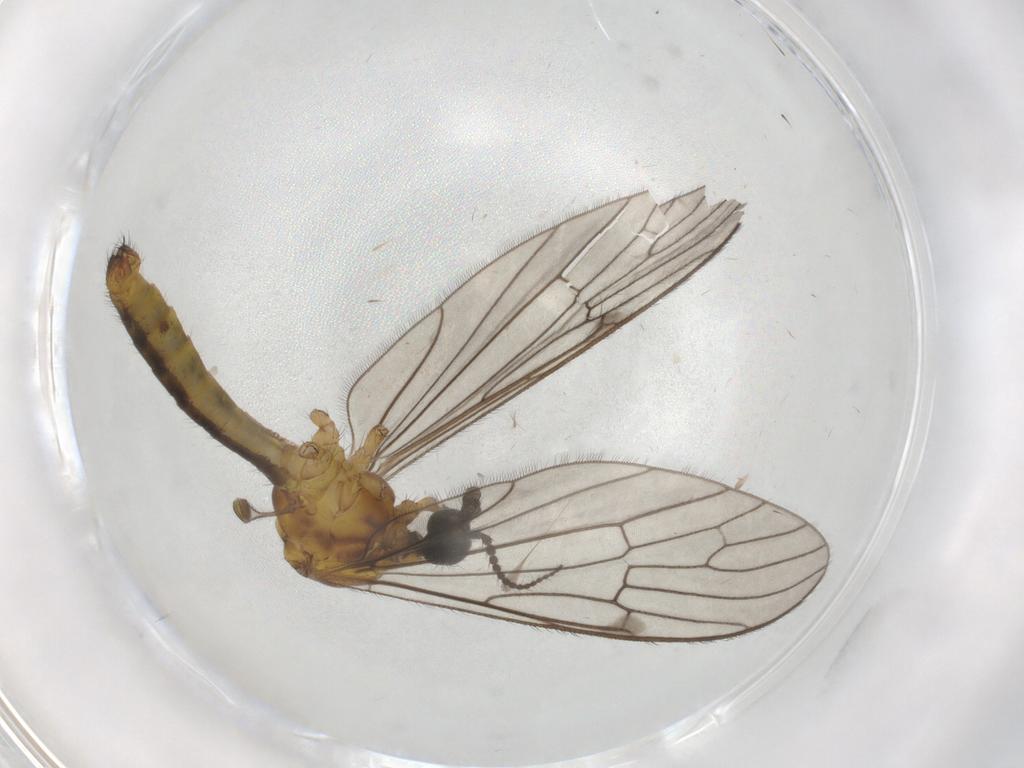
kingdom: Animalia
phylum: Arthropoda
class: Insecta
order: Diptera
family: Limoniidae
